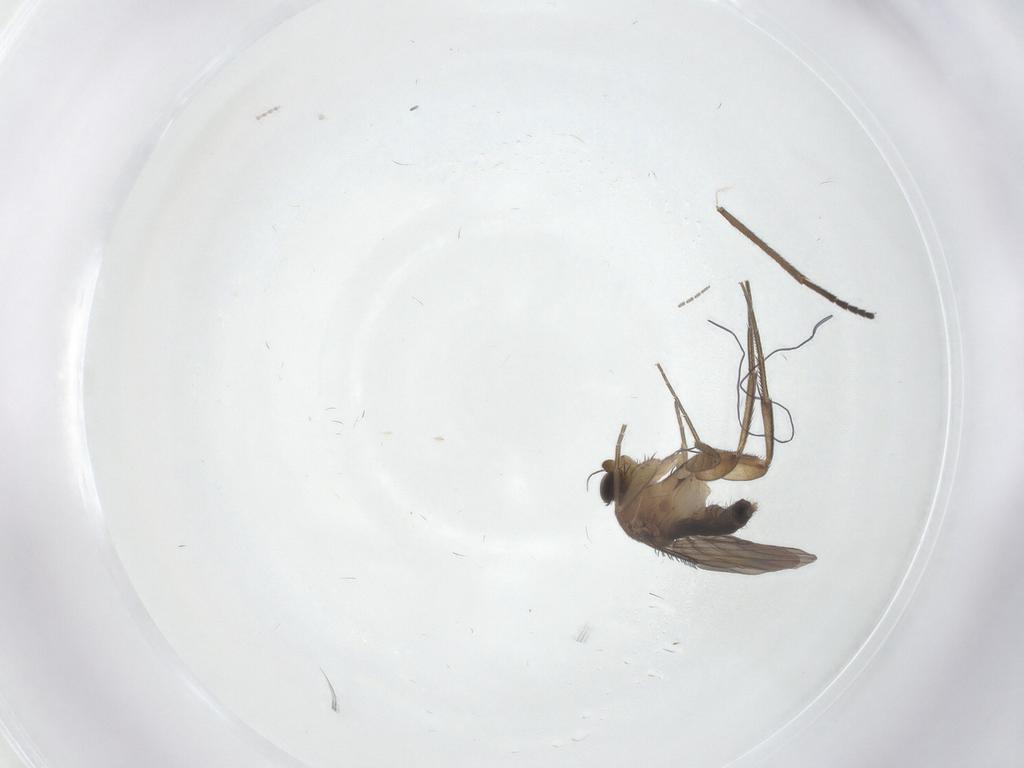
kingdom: Animalia
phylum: Arthropoda
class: Insecta
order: Diptera
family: Phoridae
